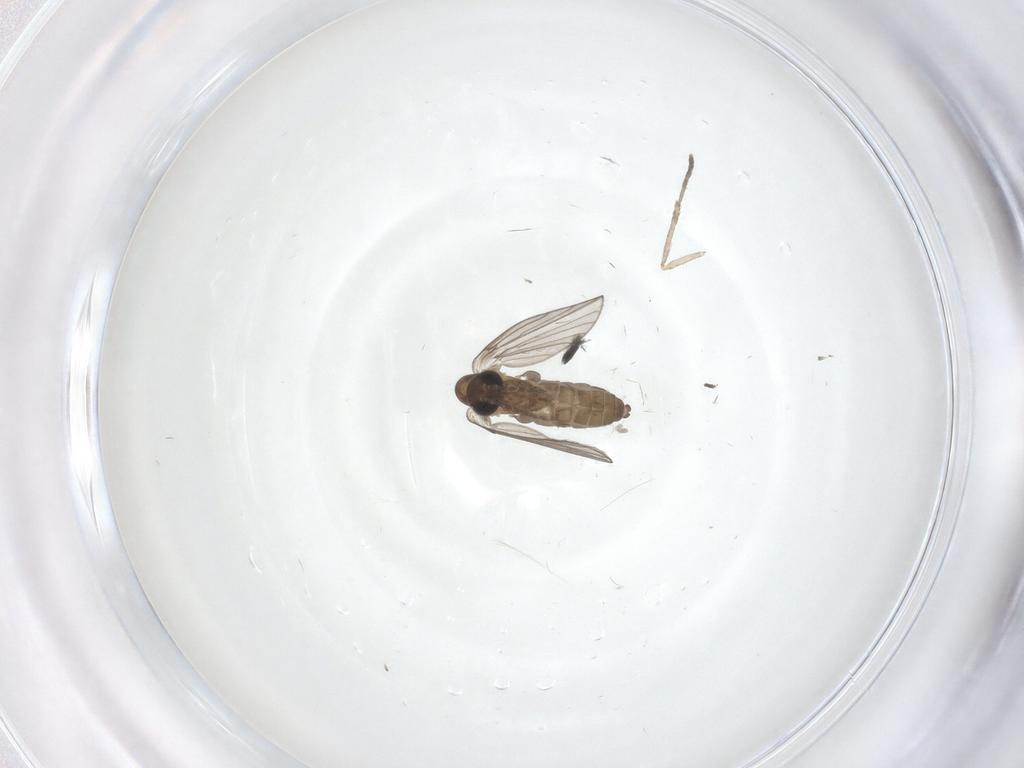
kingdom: Animalia
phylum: Arthropoda
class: Insecta
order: Diptera
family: Psychodidae
